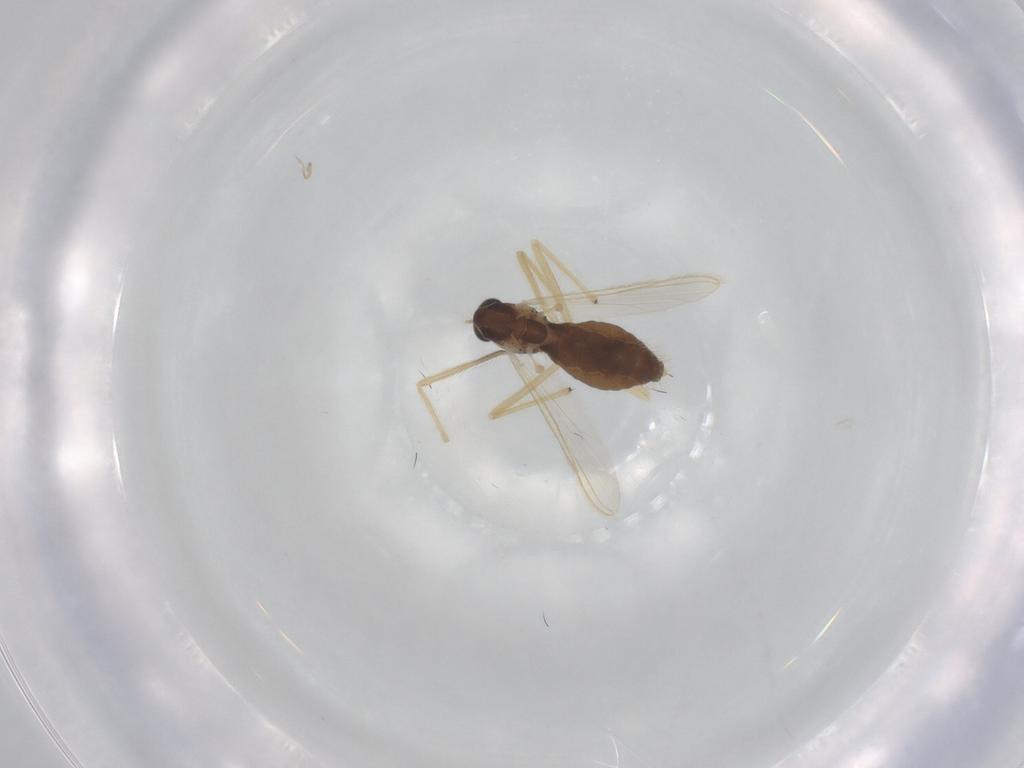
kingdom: Animalia
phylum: Arthropoda
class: Insecta
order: Diptera
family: Chironomidae
